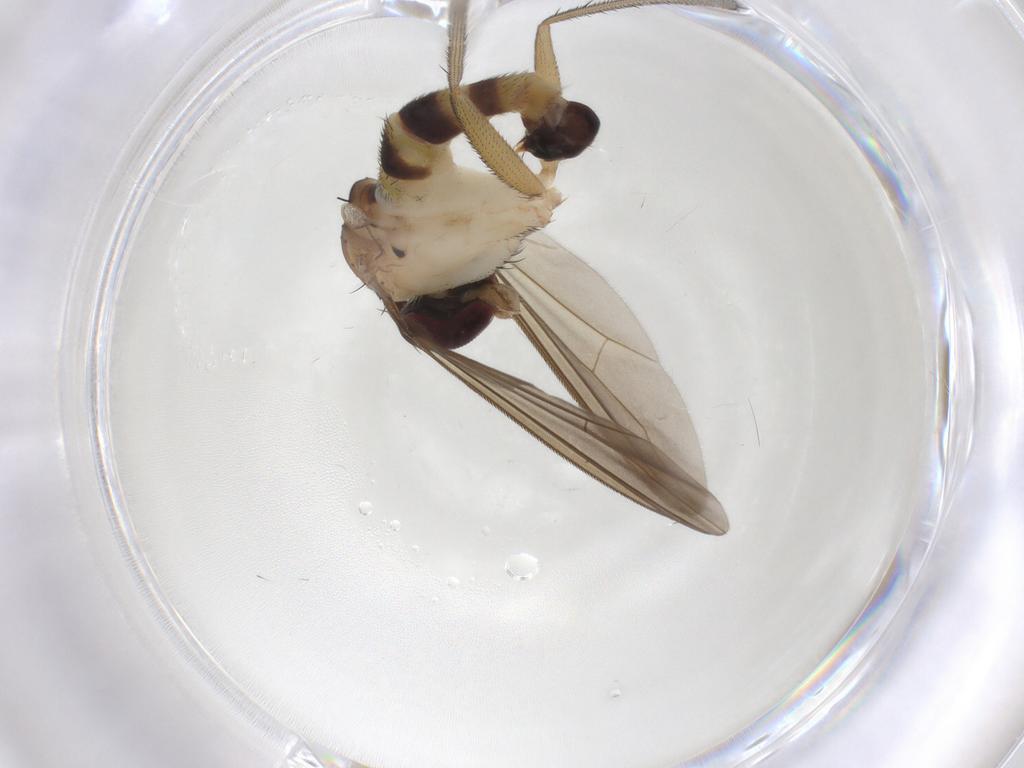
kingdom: Animalia
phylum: Arthropoda
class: Insecta
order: Diptera
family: Dolichopodidae
